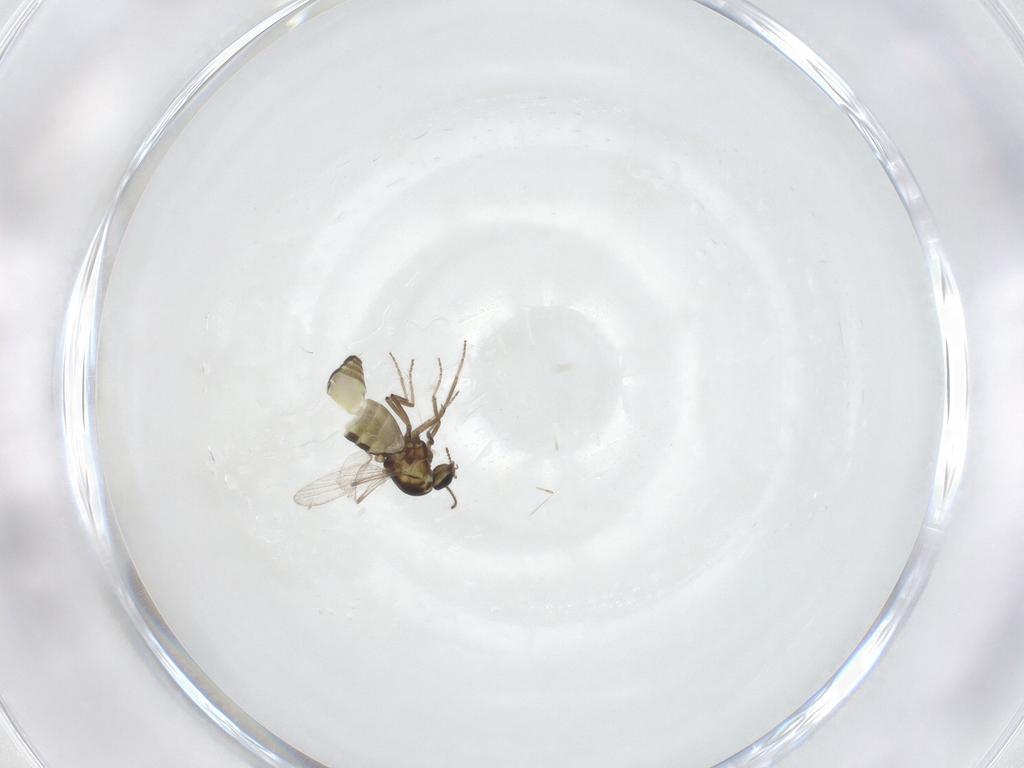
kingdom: Animalia
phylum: Arthropoda
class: Insecta
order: Diptera
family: Ceratopogonidae
